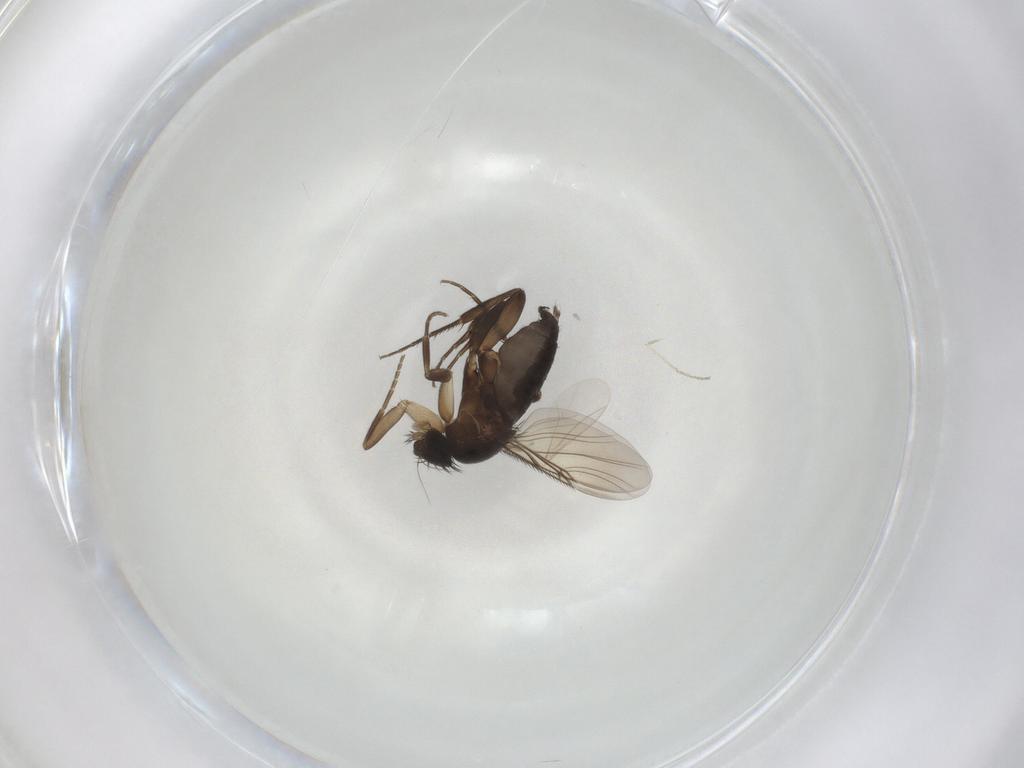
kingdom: Animalia
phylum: Arthropoda
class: Insecta
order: Diptera
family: Phoridae
